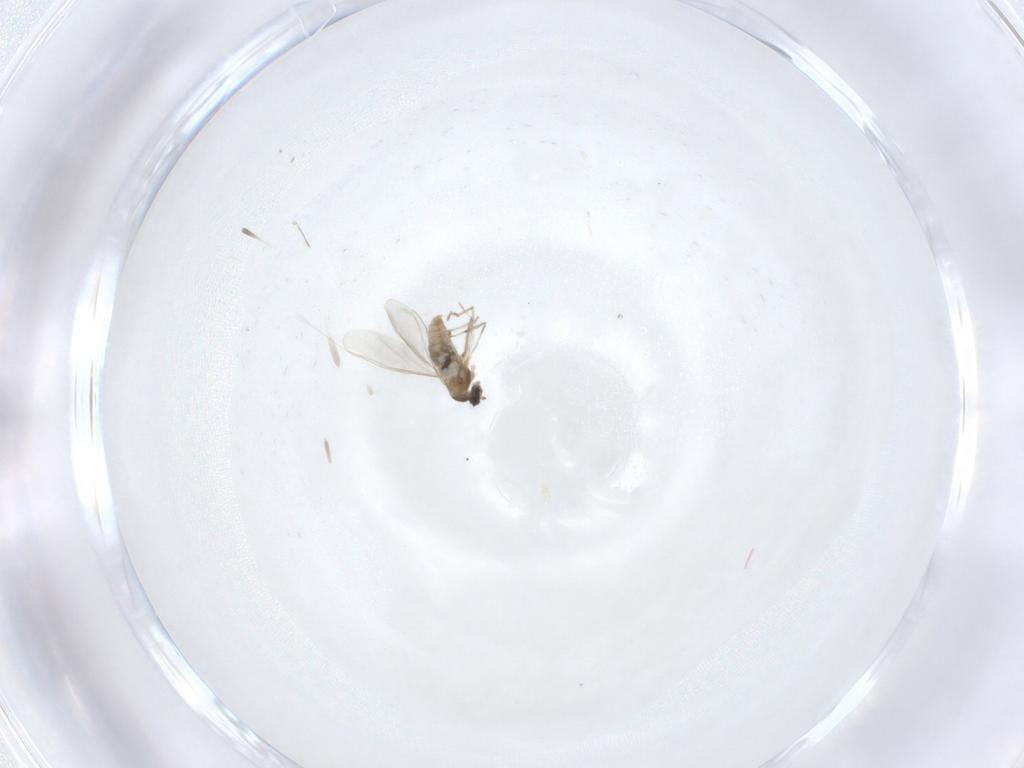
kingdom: Animalia
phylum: Arthropoda
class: Insecta
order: Diptera
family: Cecidomyiidae
